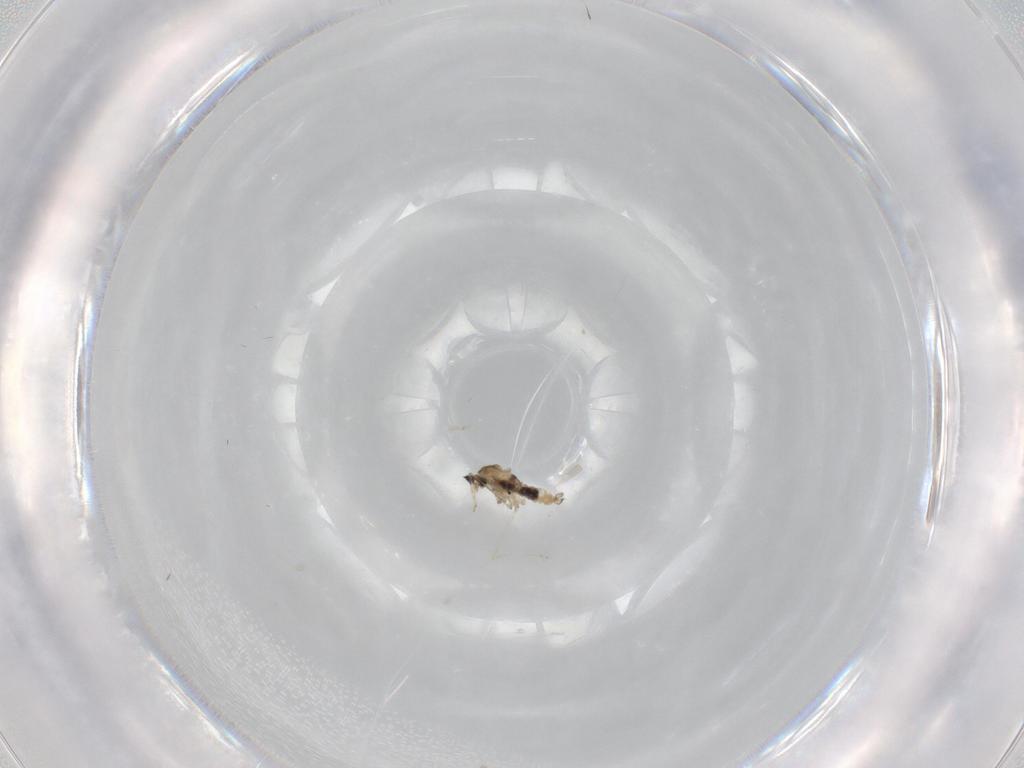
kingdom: Animalia
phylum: Arthropoda
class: Insecta
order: Diptera
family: Cecidomyiidae
